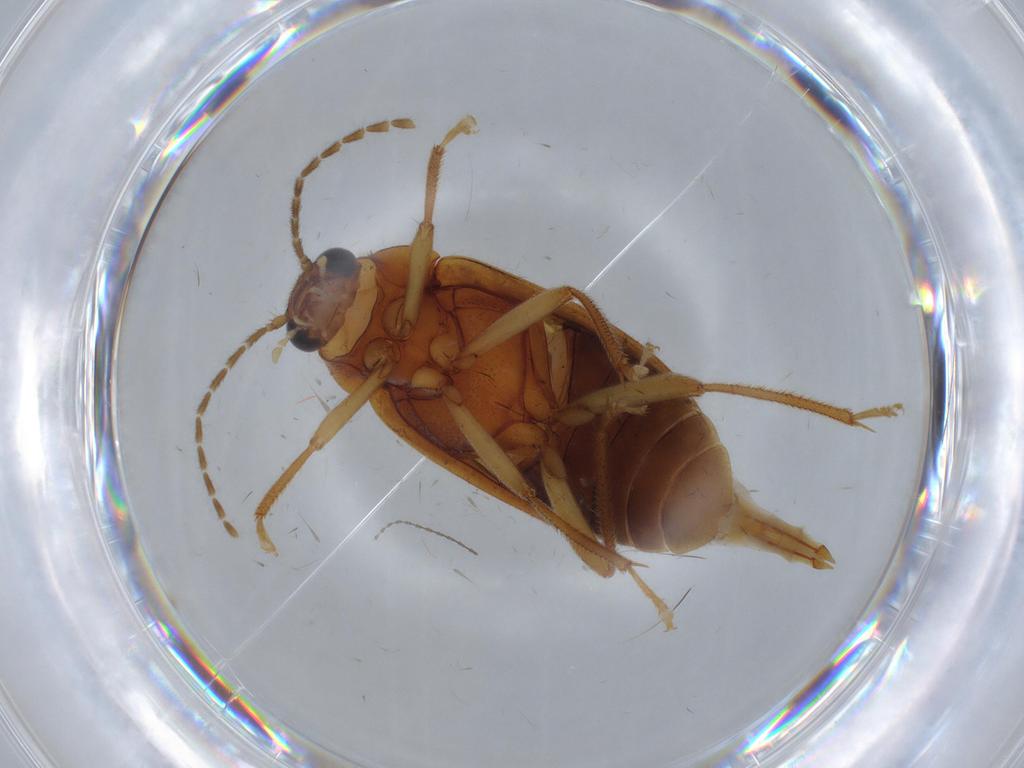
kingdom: Animalia
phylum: Arthropoda
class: Insecta
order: Coleoptera
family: Ptilodactylidae
